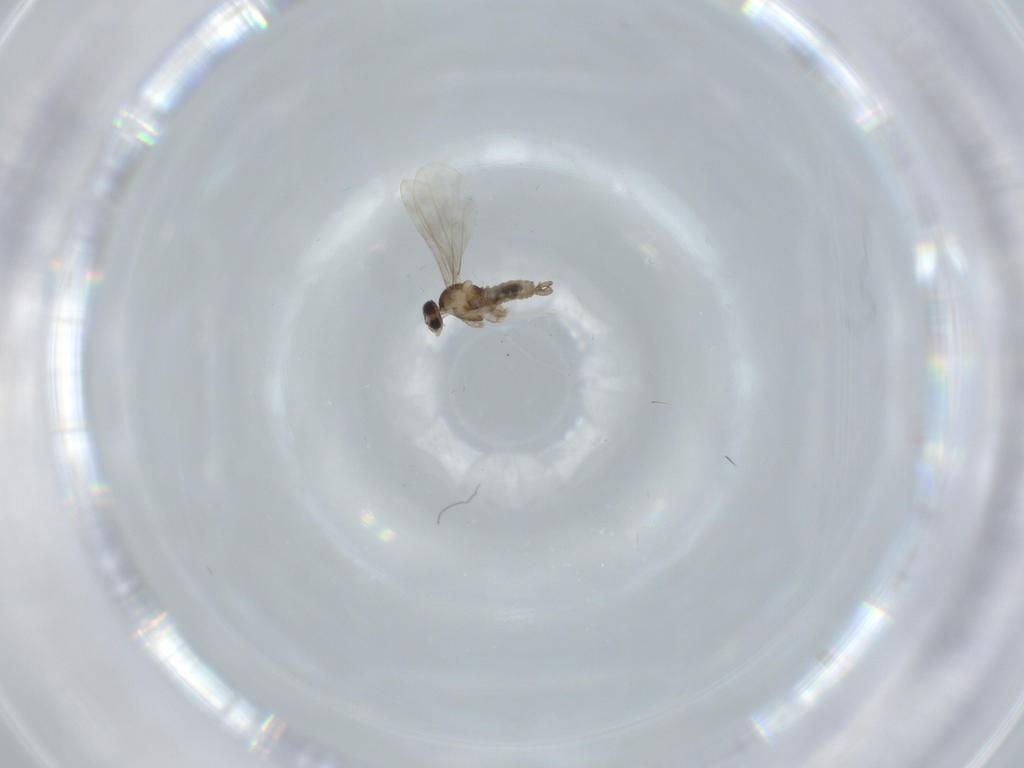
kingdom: Animalia
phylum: Arthropoda
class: Insecta
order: Diptera
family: Cecidomyiidae
